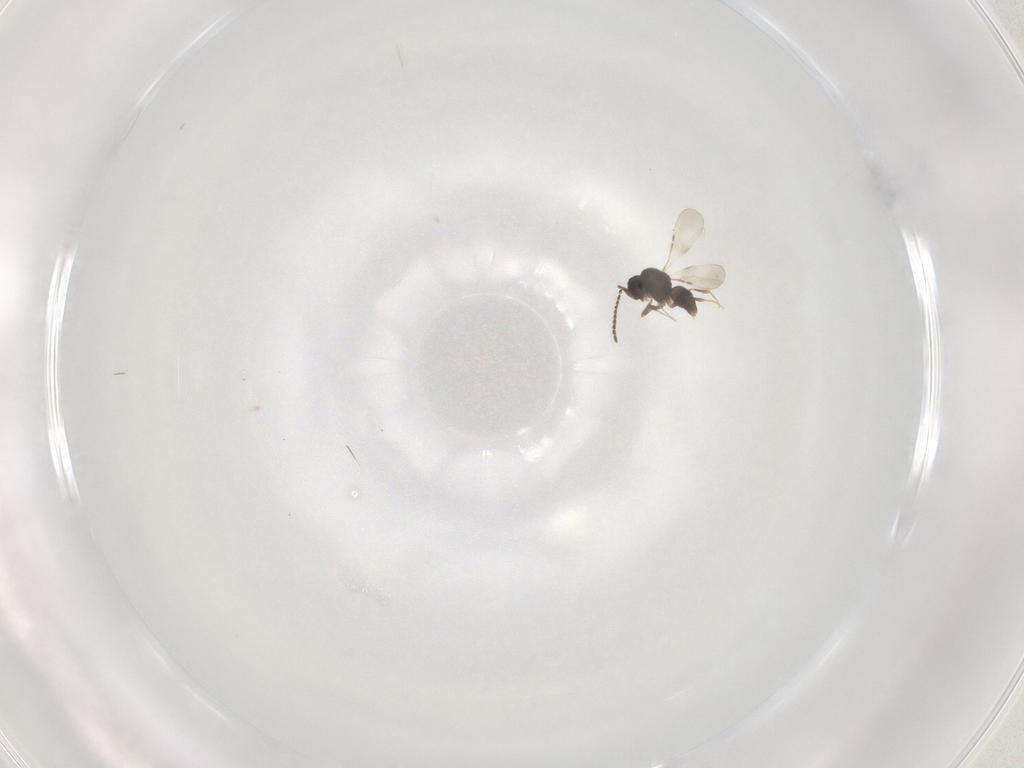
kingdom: Animalia
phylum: Arthropoda
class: Insecta
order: Hymenoptera
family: Ceraphronidae
